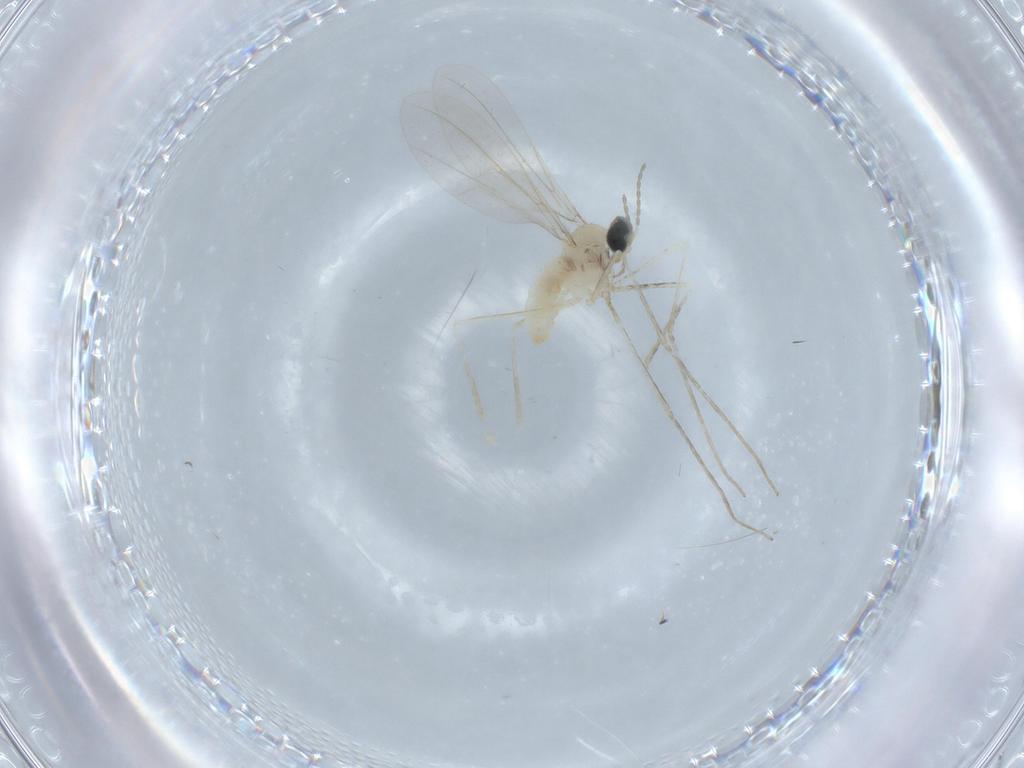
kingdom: Animalia
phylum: Arthropoda
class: Insecta
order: Diptera
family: Cecidomyiidae
